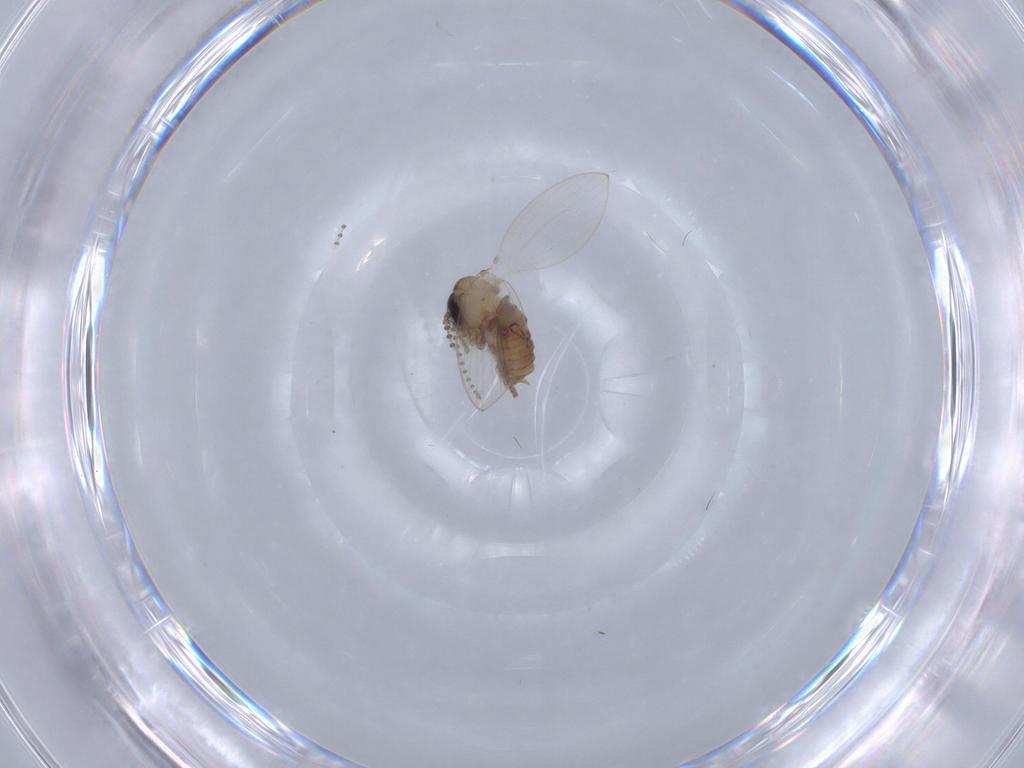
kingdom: Animalia
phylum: Arthropoda
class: Insecta
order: Diptera
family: Psychodidae
